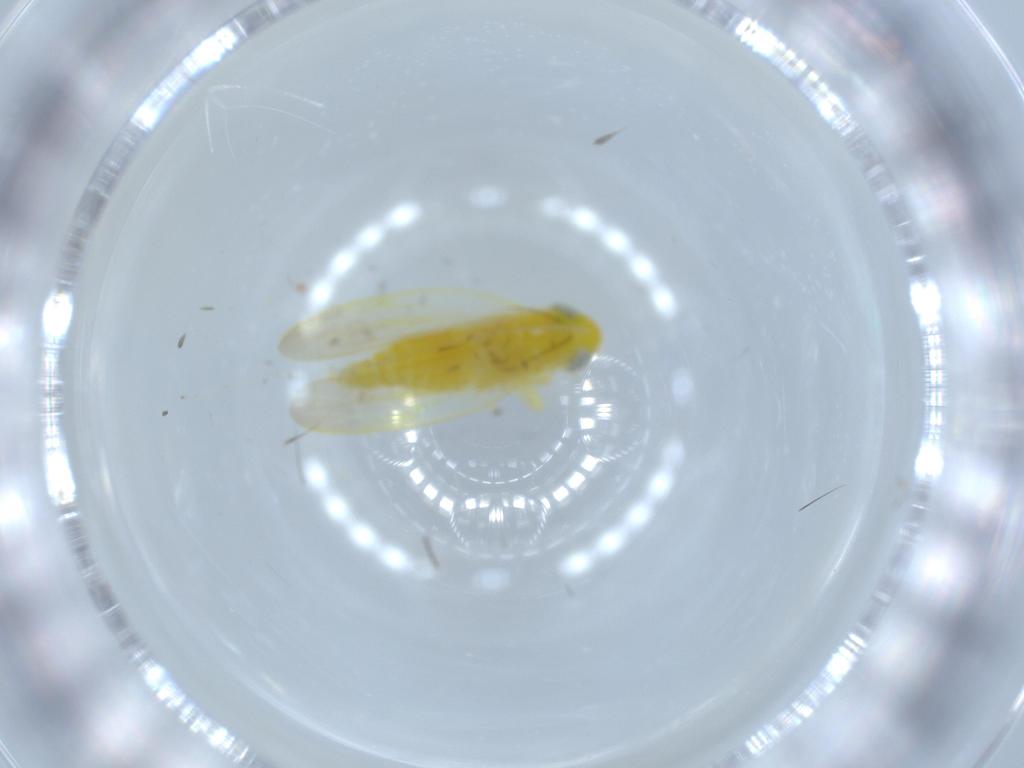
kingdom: Animalia
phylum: Arthropoda
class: Insecta
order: Hemiptera
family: Cicadellidae
